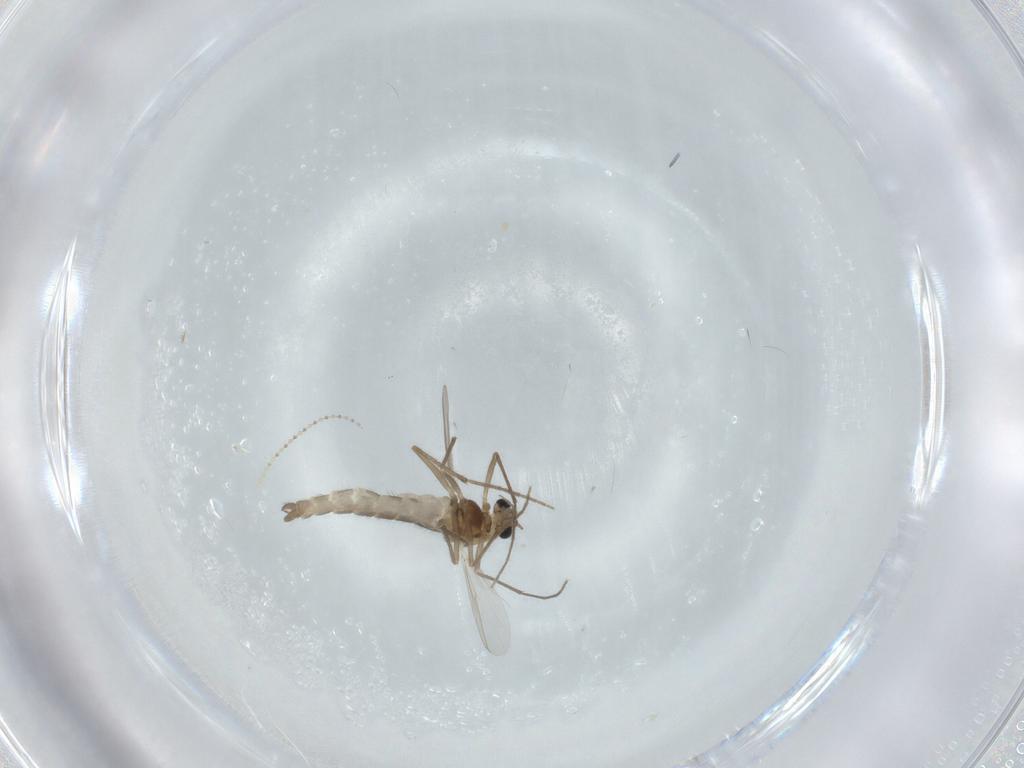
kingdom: Animalia
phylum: Arthropoda
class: Insecta
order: Diptera
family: Chironomidae
